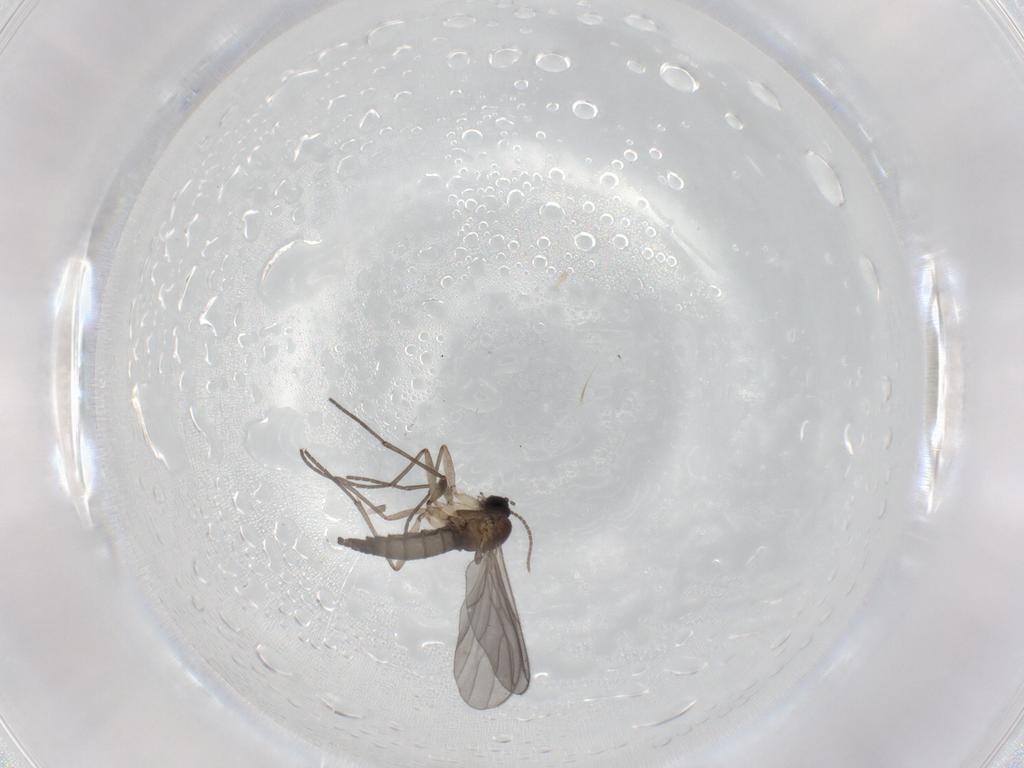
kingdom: Animalia
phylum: Arthropoda
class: Insecta
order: Diptera
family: Sciaridae
